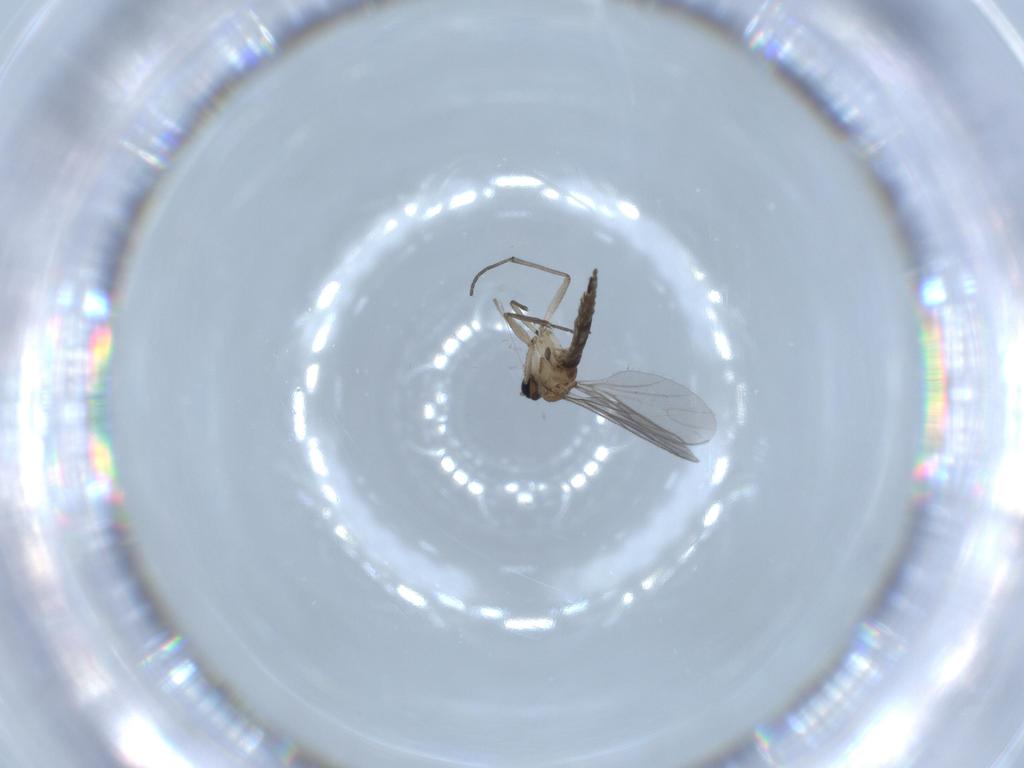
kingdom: Animalia
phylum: Arthropoda
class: Insecta
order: Diptera
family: Sciaridae
